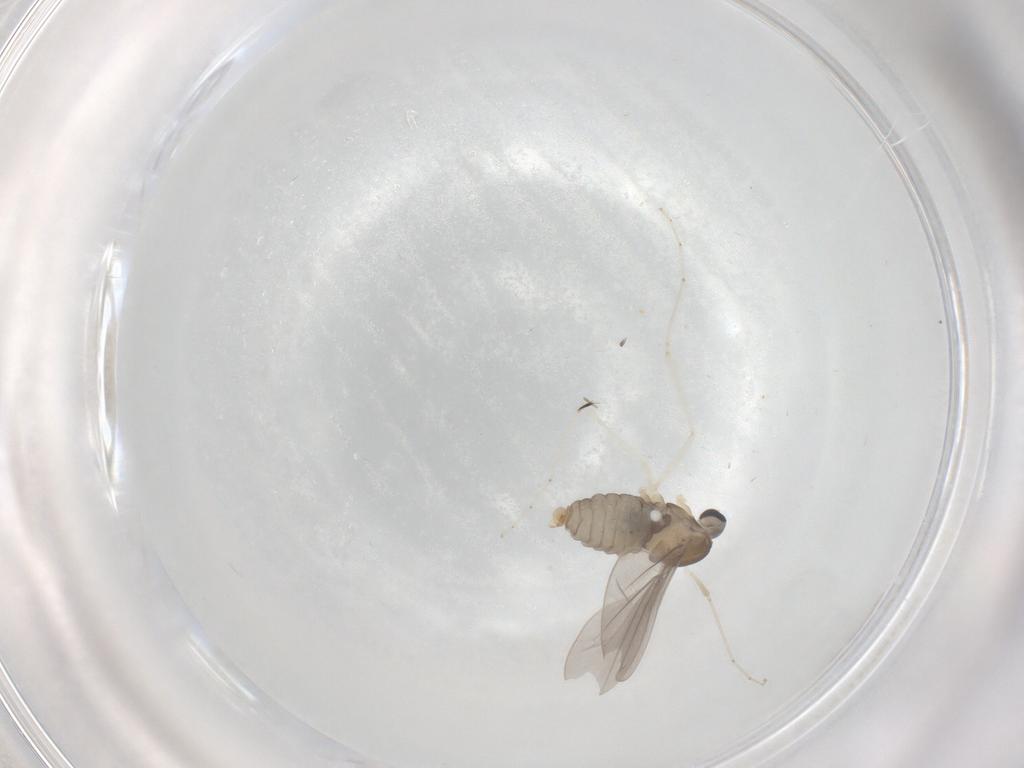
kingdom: Animalia
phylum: Arthropoda
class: Insecta
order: Diptera
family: Cecidomyiidae
